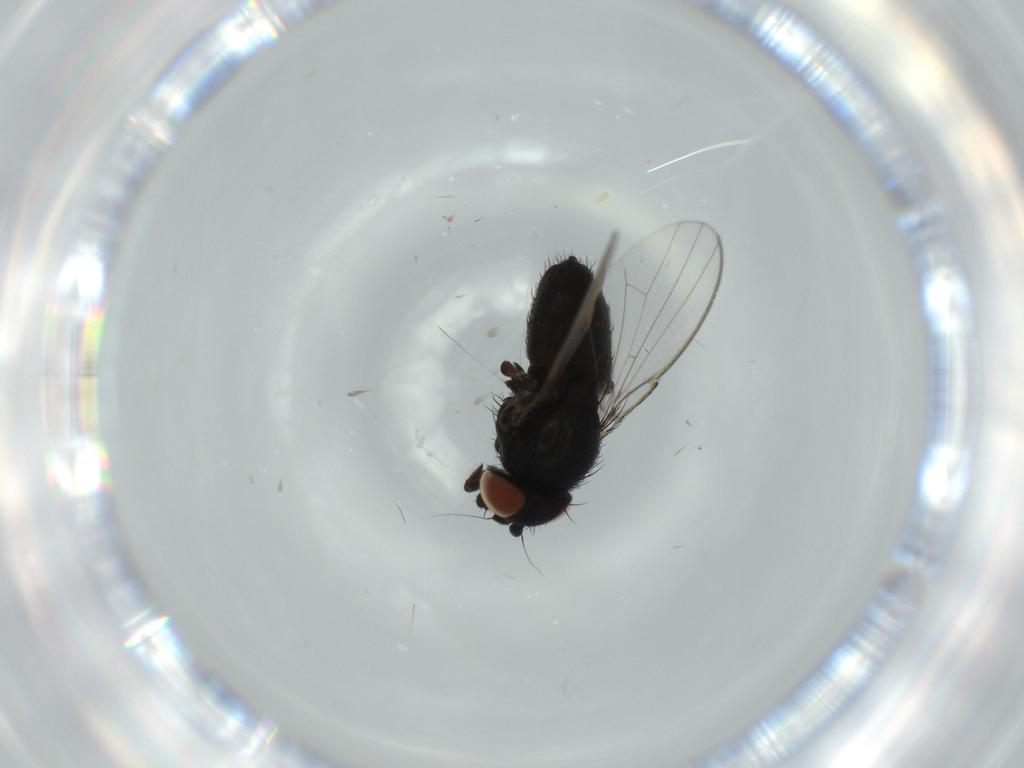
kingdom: Animalia
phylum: Arthropoda
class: Insecta
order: Diptera
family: Milichiidae
